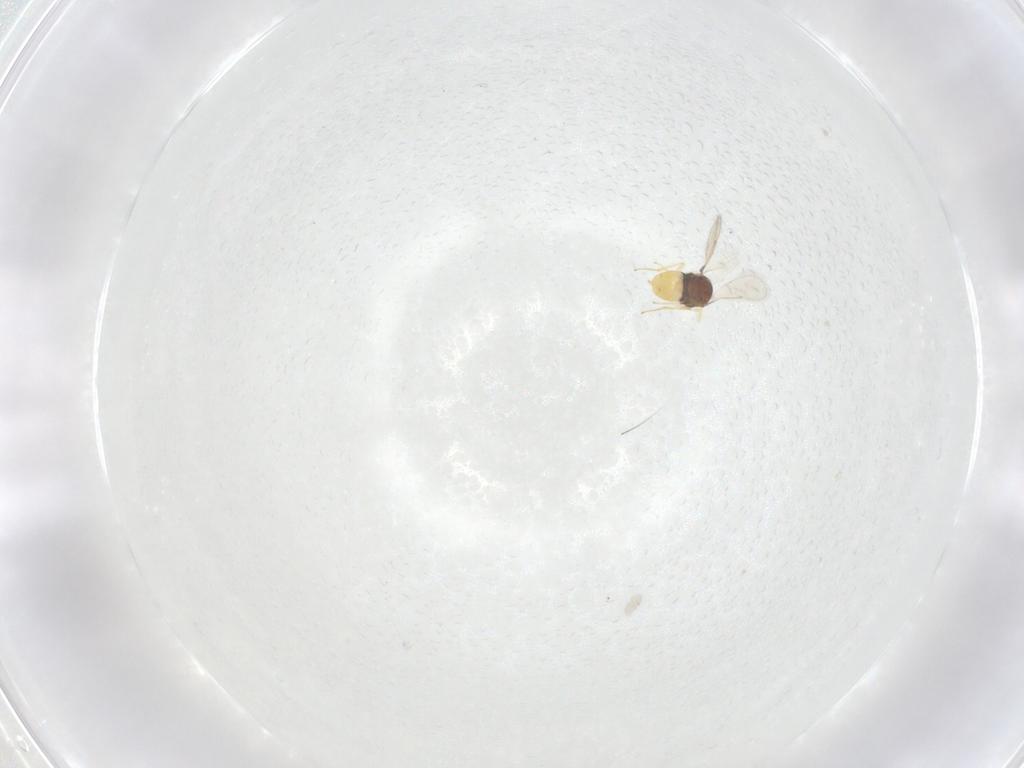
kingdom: Animalia
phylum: Arthropoda
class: Insecta
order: Hymenoptera
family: Aphelinidae
